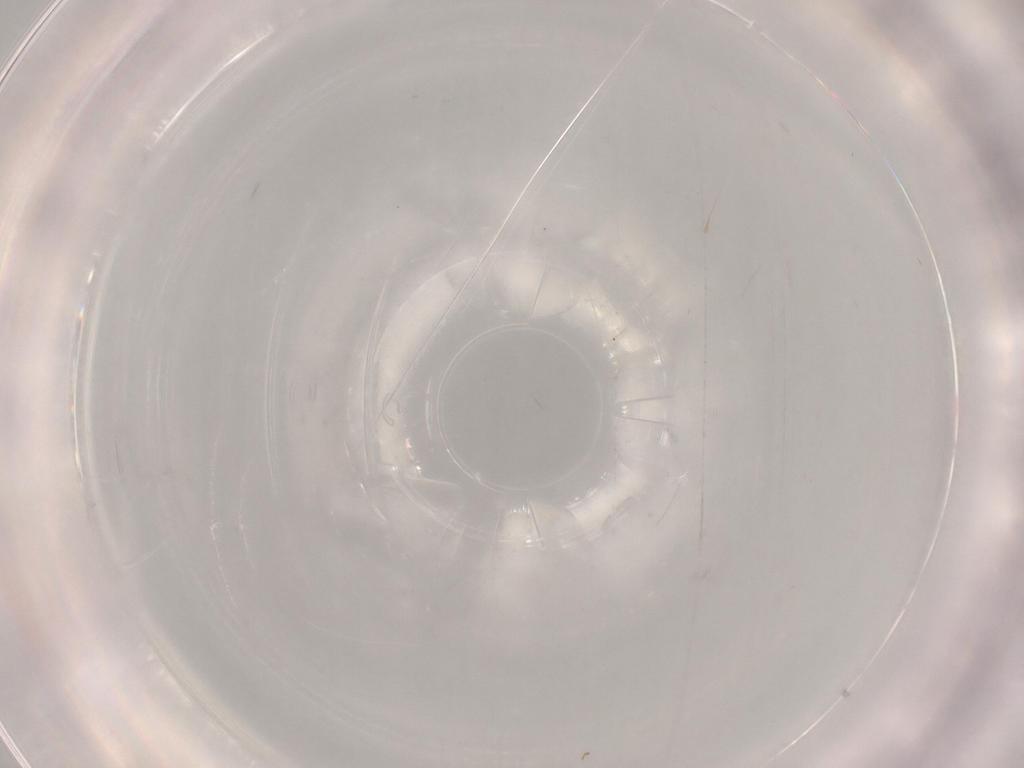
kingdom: Animalia
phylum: Arthropoda
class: Insecta
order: Hemiptera
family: Tropiduchidae
